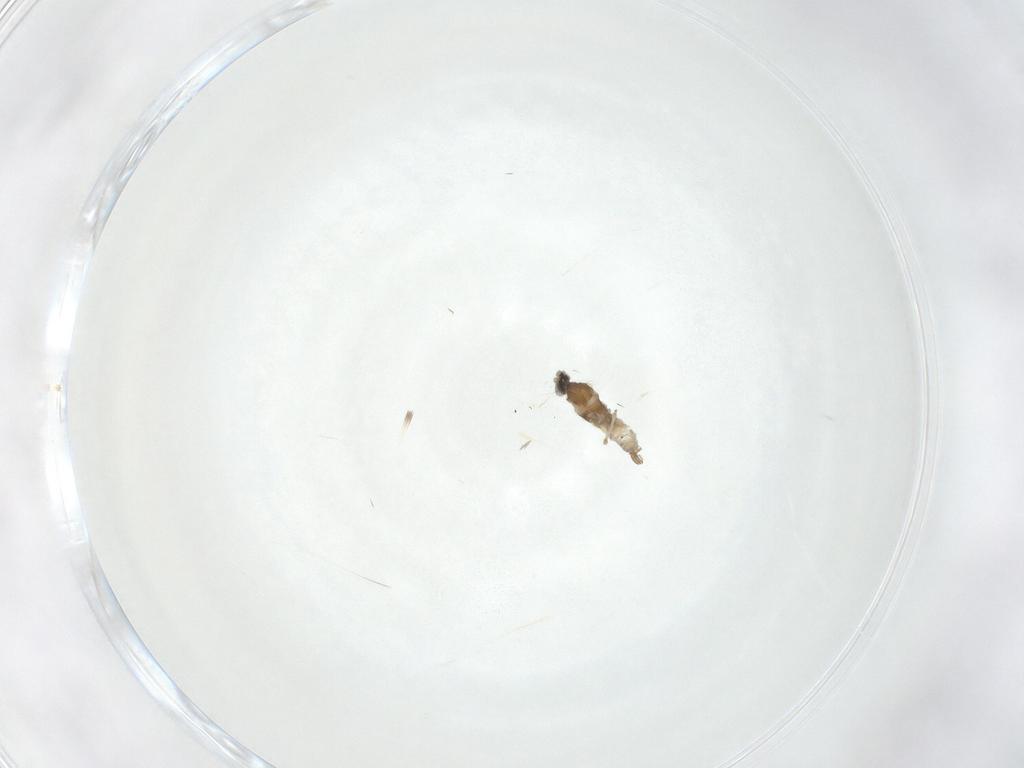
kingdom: Animalia
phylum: Arthropoda
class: Insecta
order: Diptera
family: Cecidomyiidae
